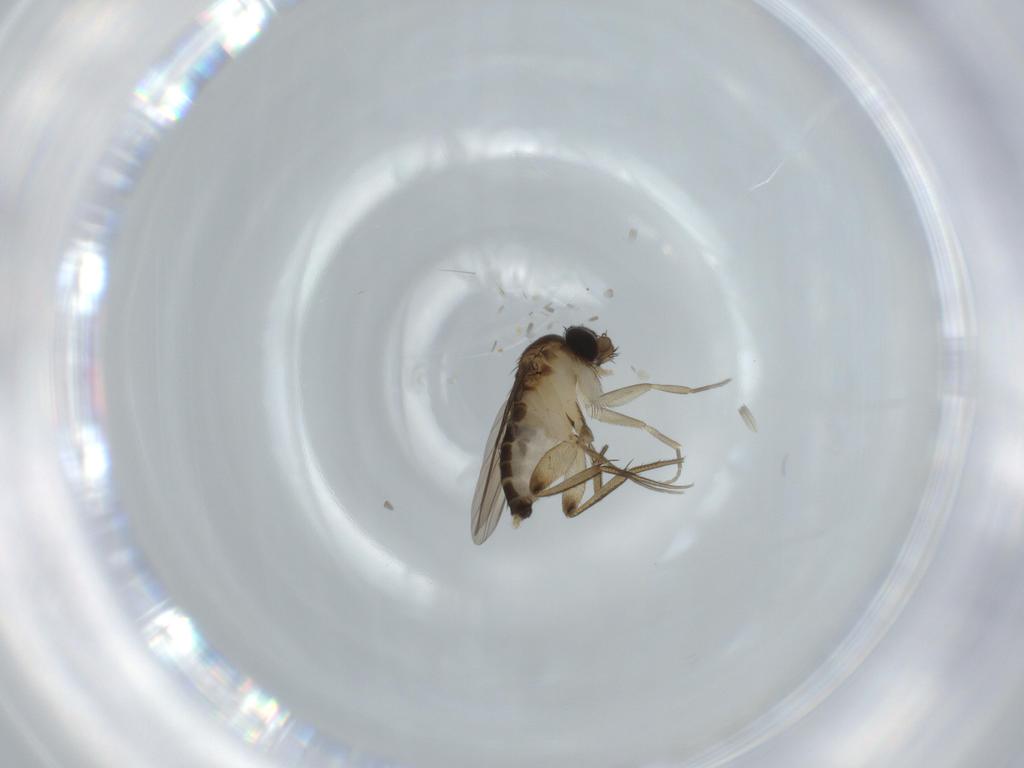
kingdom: Animalia
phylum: Arthropoda
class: Insecta
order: Diptera
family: Phoridae
